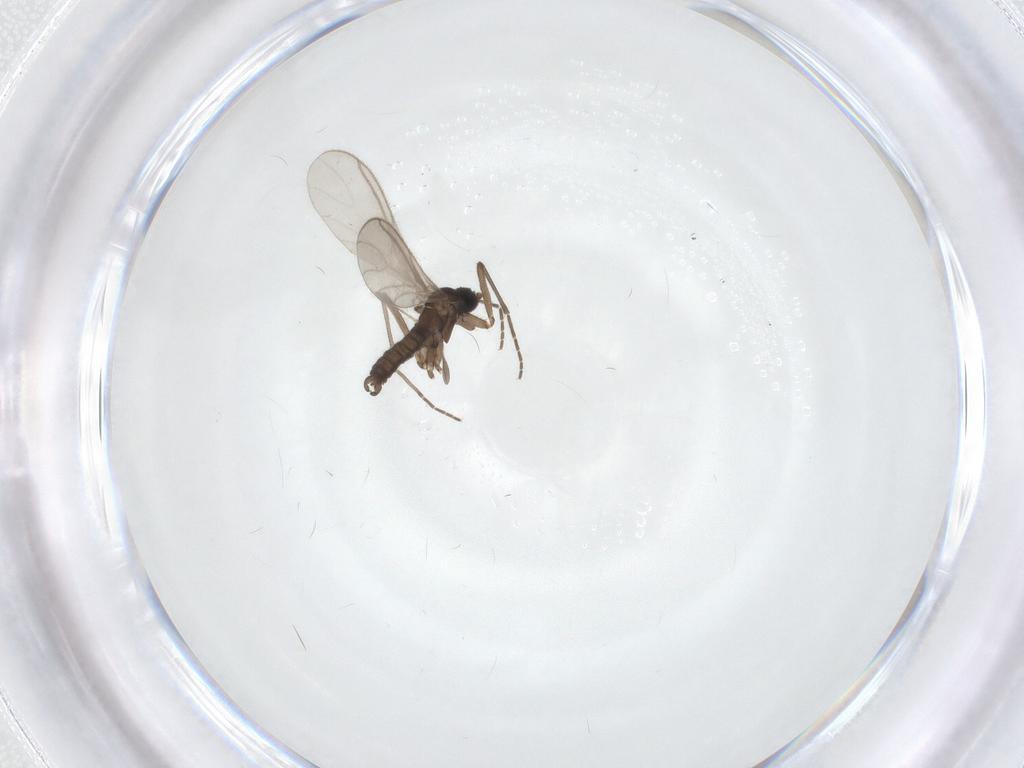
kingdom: Animalia
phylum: Arthropoda
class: Insecta
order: Diptera
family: Sciaridae
